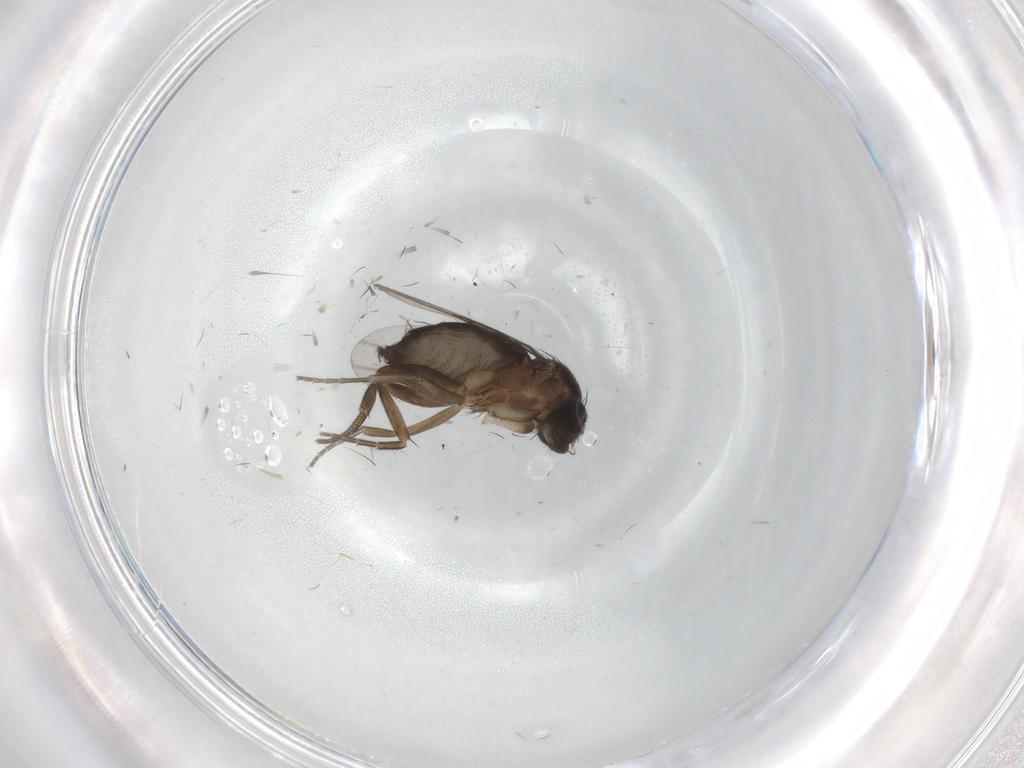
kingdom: Animalia
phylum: Arthropoda
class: Insecta
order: Diptera
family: Phoridae
